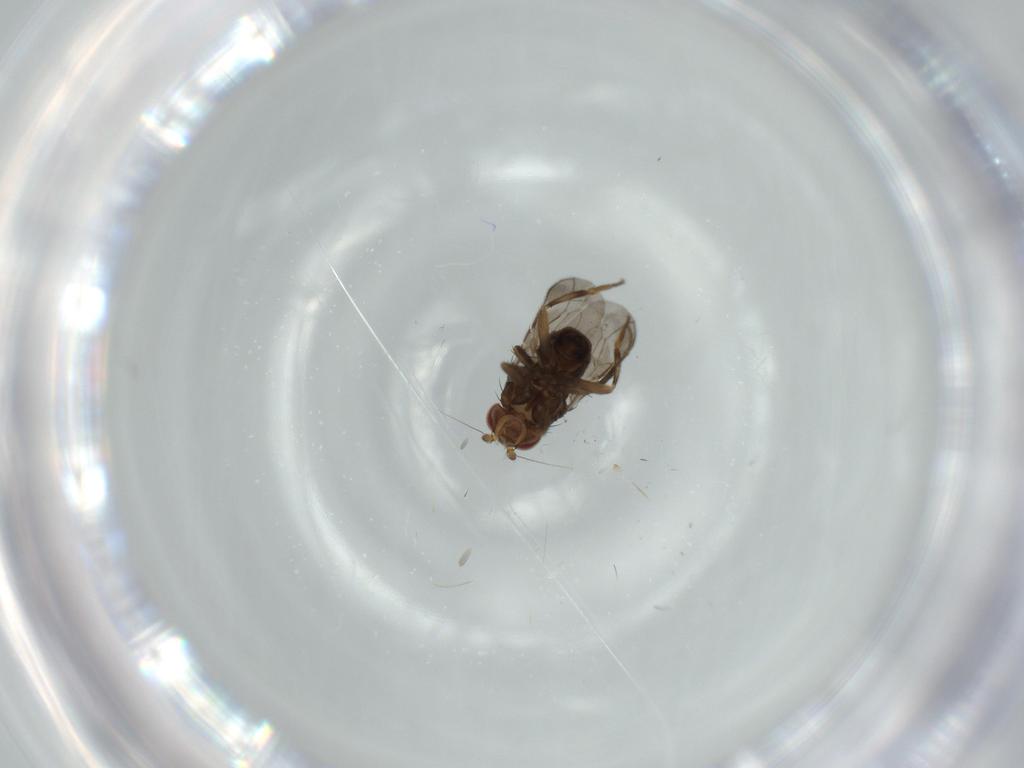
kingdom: Animalia
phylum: Arthropoda
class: Insecta
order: Diptera
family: Sphaeroceridae
